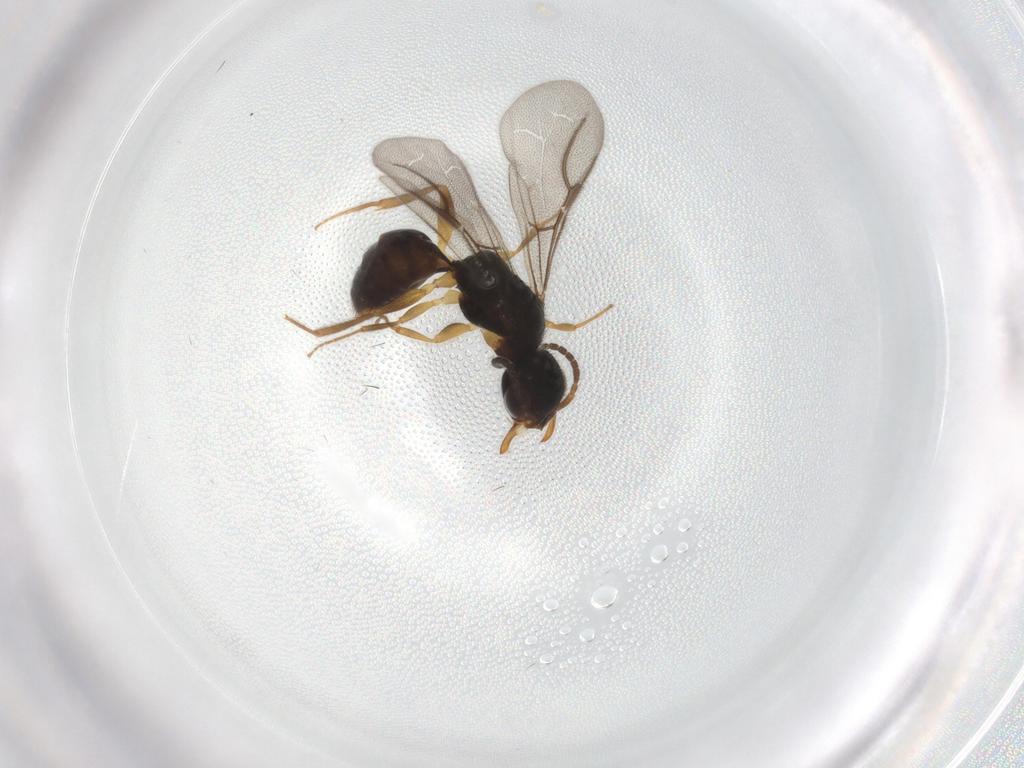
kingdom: Animalia
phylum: Arthropoda
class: Insecta
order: Hymenoptera
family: Bethylidae
